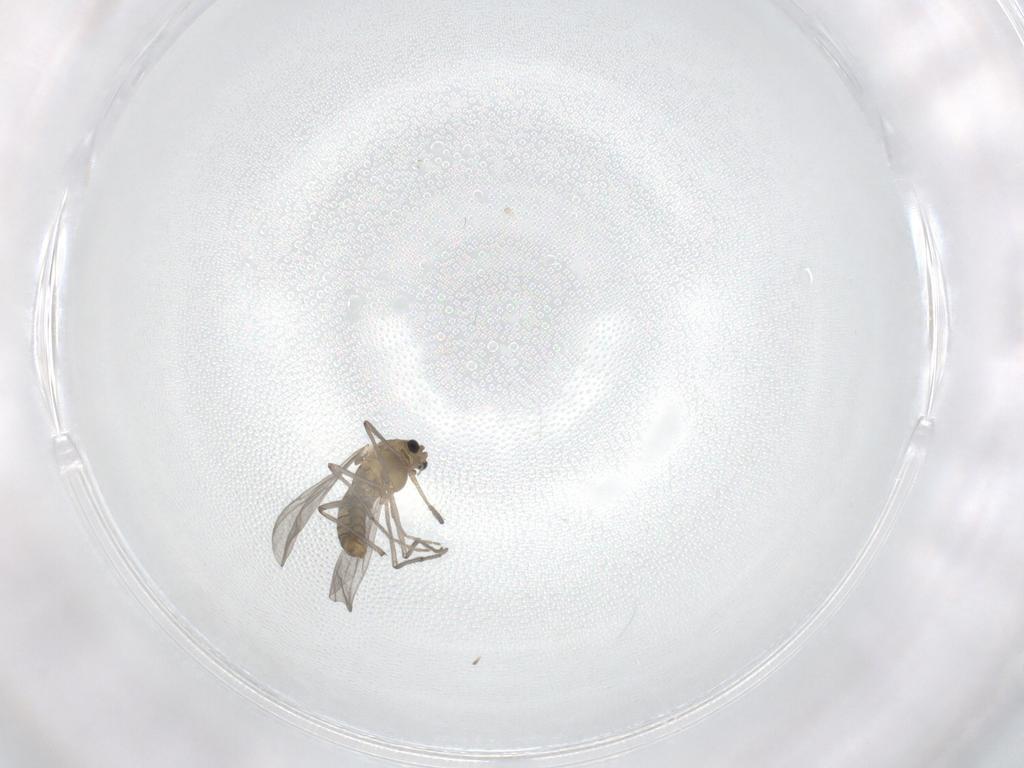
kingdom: Animalia
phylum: Arthropoda
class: Insecta
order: Diptera
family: Chironomidae
